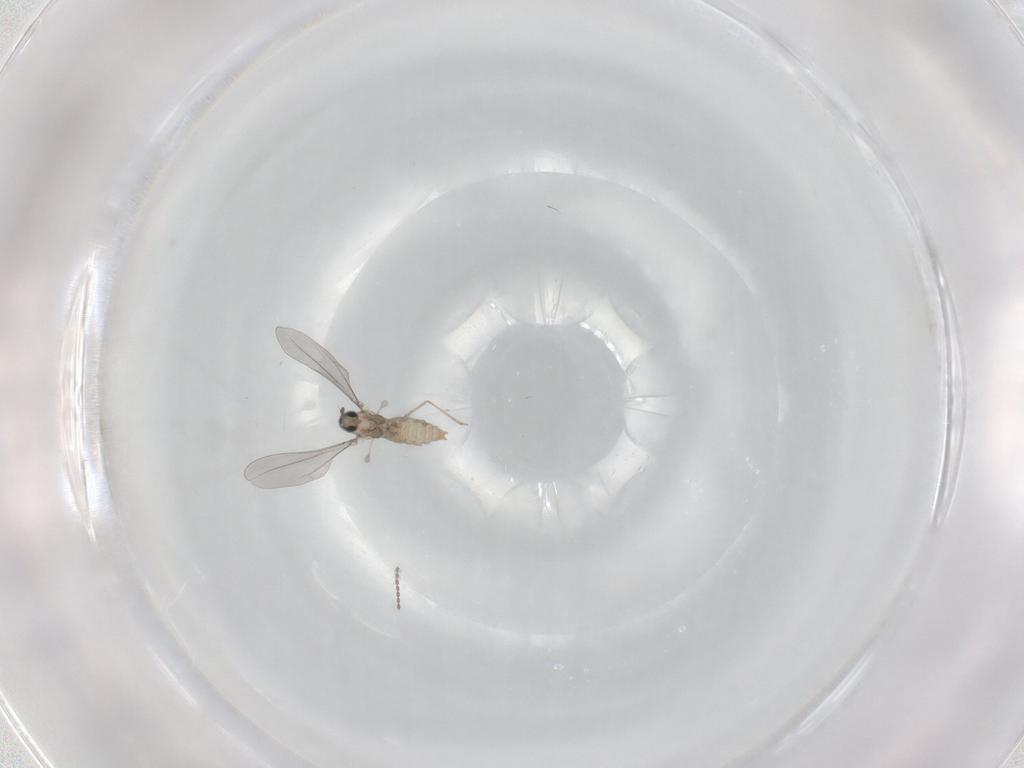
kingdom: Animalia
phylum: Arthropoda
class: Insecta
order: Diptera
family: Cecidomyiidae
